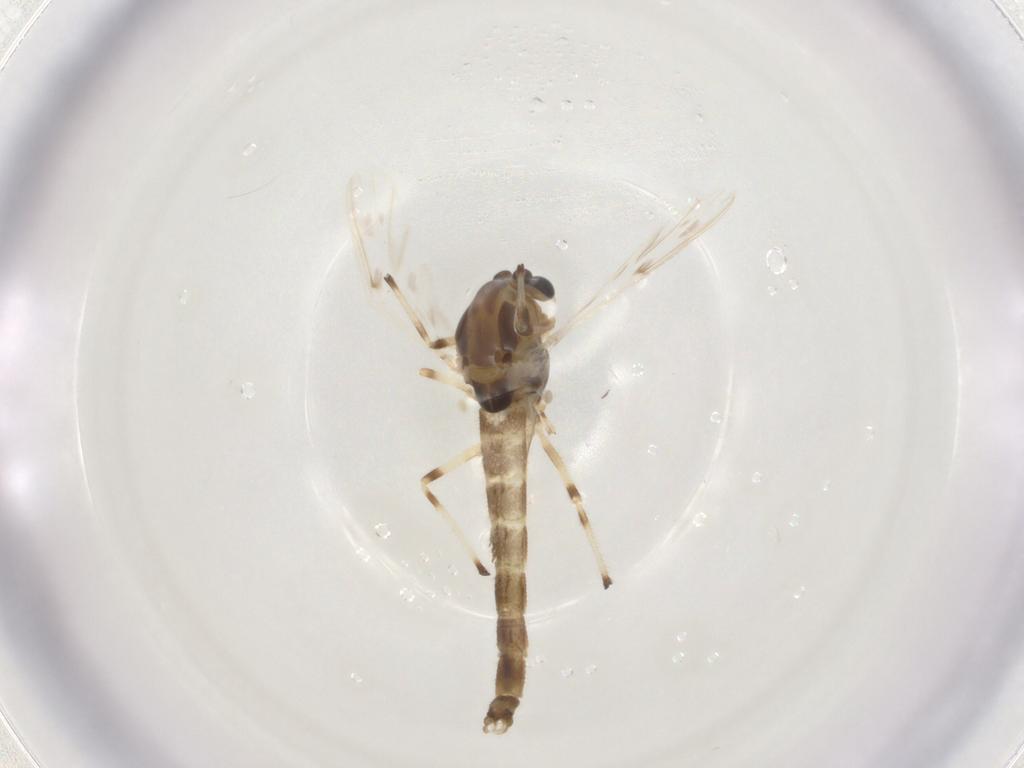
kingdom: Animalia
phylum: Arthropoda
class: Insecta
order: Diptera
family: Chironomidae
